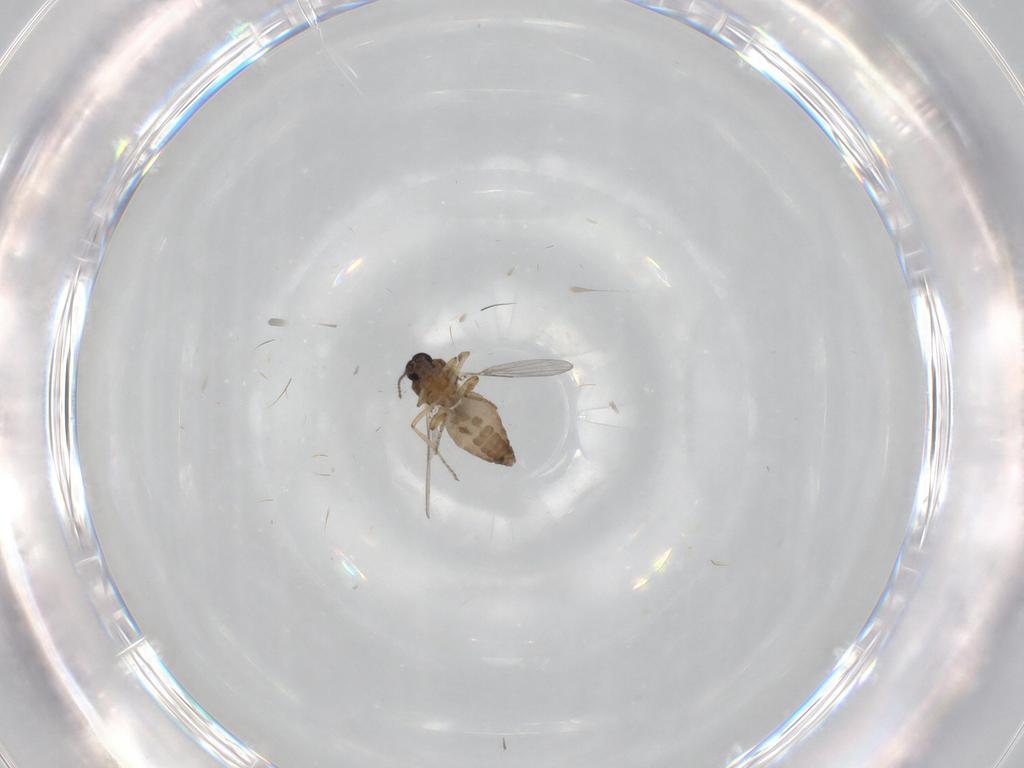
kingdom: Animalia
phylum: Arthropoda
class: Insecta
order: Diptera
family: Ceratopogonidae
